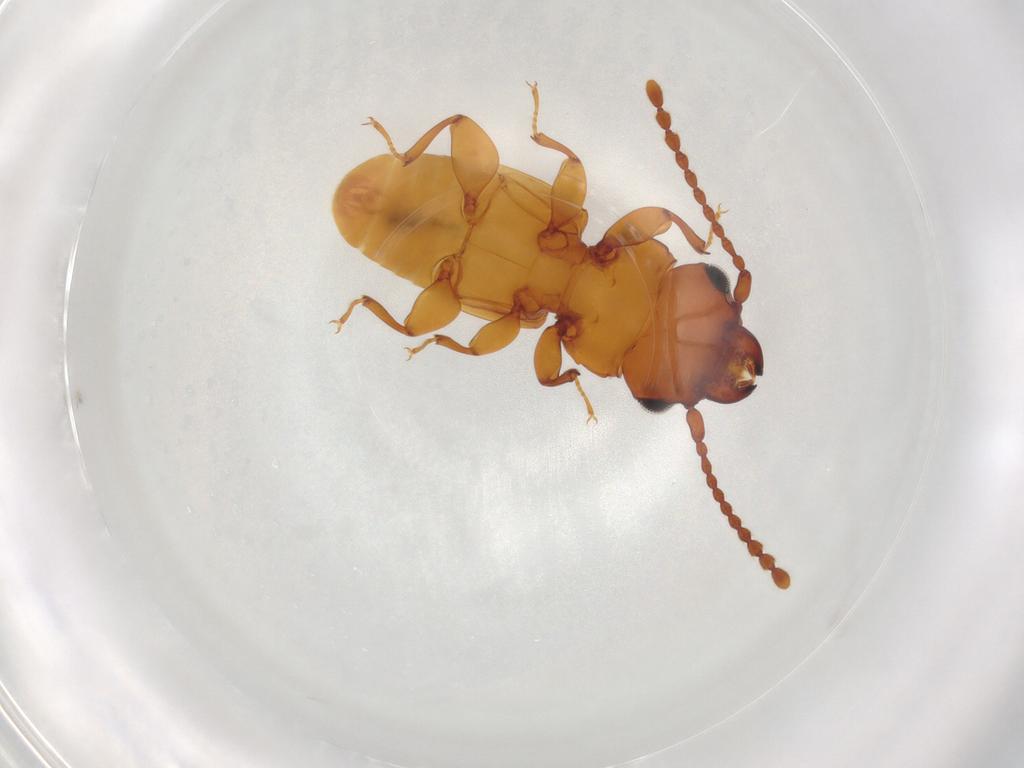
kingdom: Animalia
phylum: Arthropoda
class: Insecta
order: Coleoptera
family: Laemophloeidae
